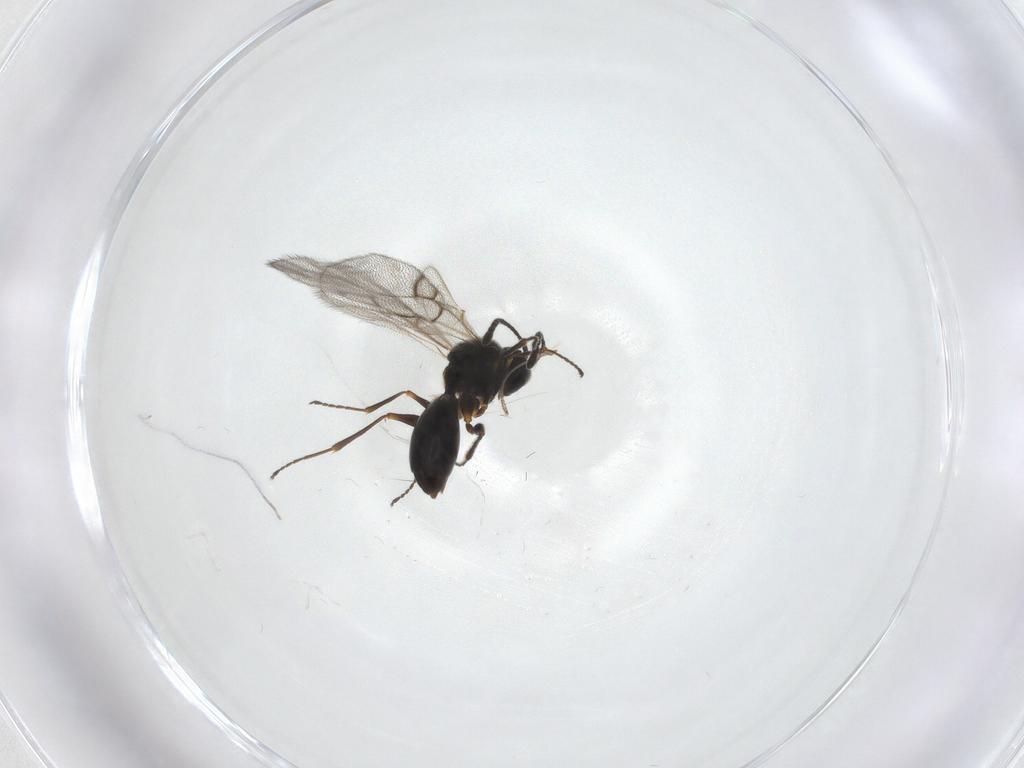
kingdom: Animalia
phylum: Arthropoda
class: Insecta
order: Hymenoptera
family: Figitidae
